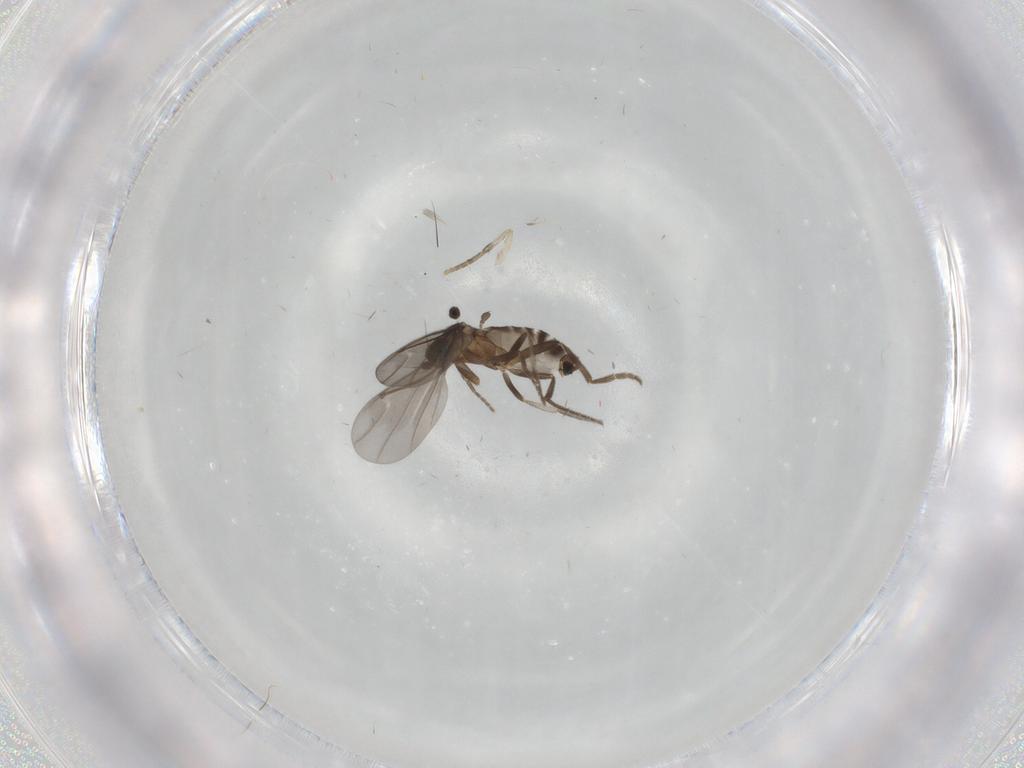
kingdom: Animalia
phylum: Arthropoda
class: Insecta
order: Diptera
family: Phoridae
